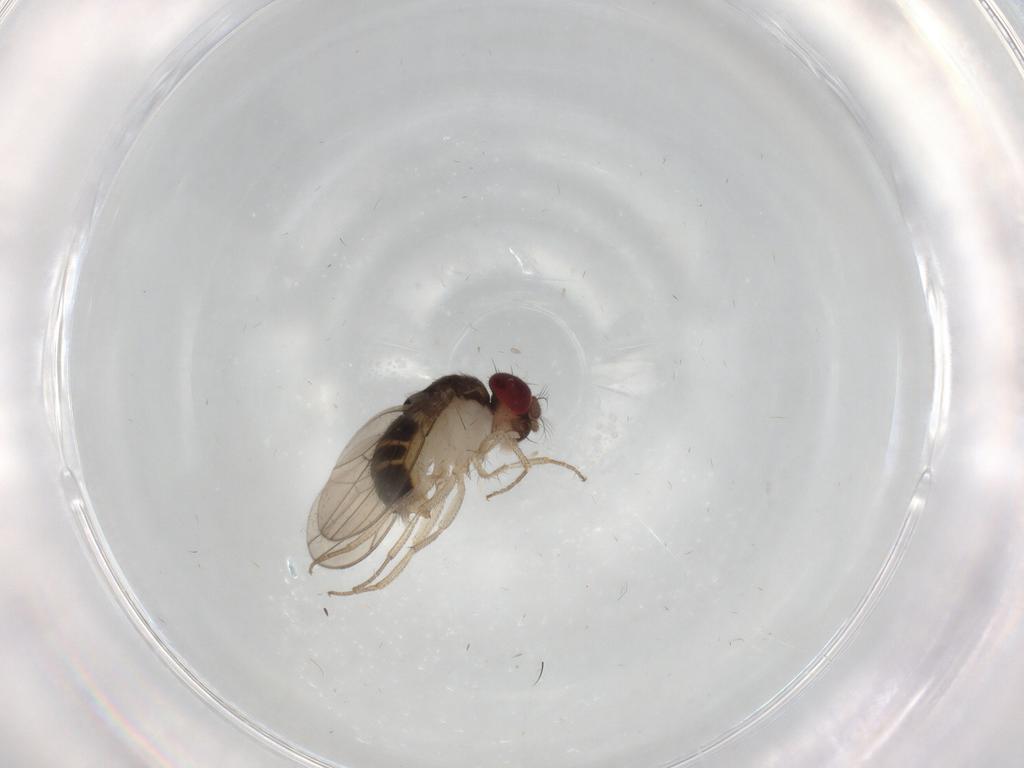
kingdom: Animalia
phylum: Arthropoda
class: Insecta
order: Diptera
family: Drosophilidae
